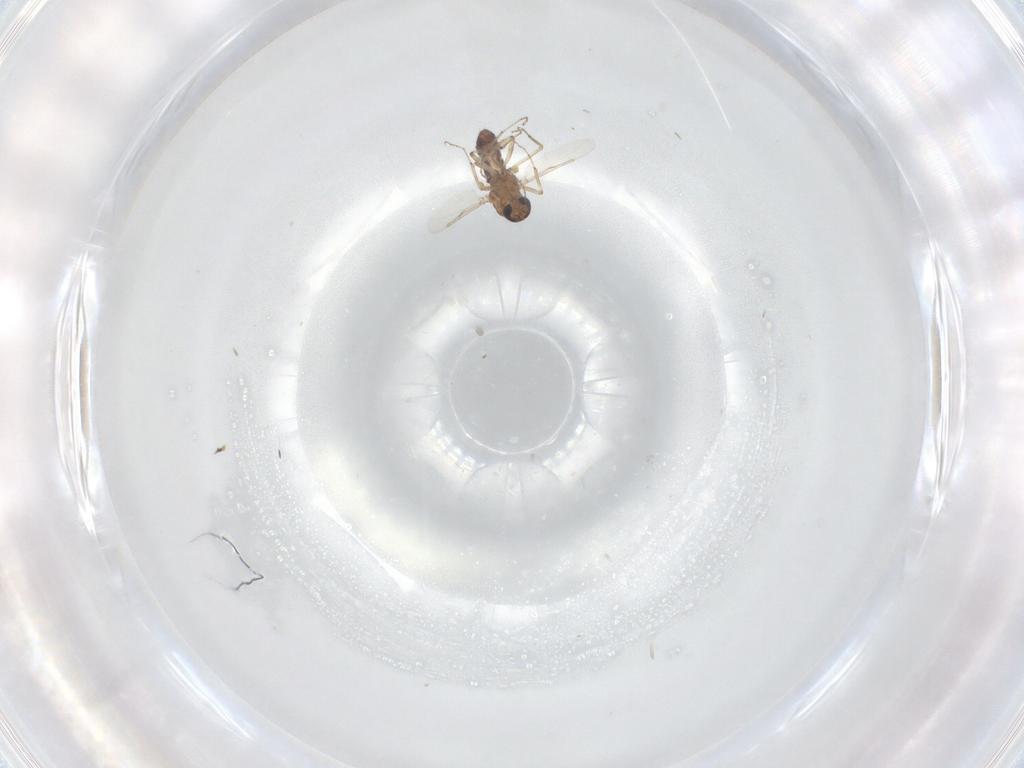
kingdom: Animalia
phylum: Arthropoda
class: Insecta
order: Diptera
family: Ceratopogonidae
